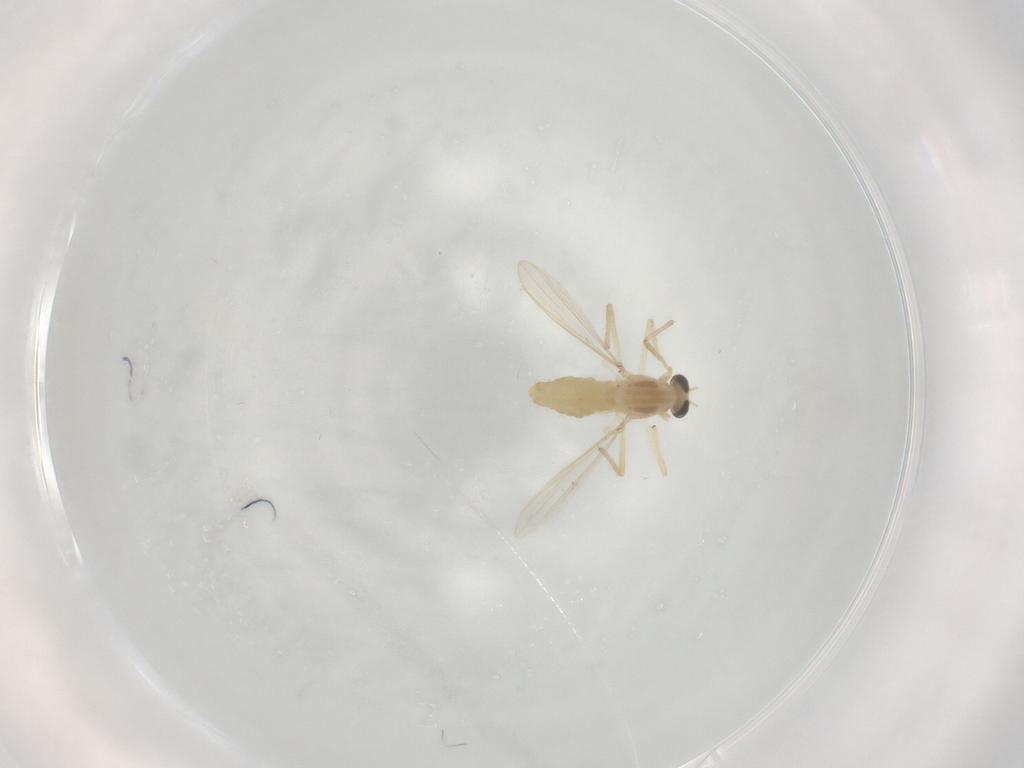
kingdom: Animalia
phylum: Arthropoda
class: Insecta
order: Diptera
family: Chironomidae
